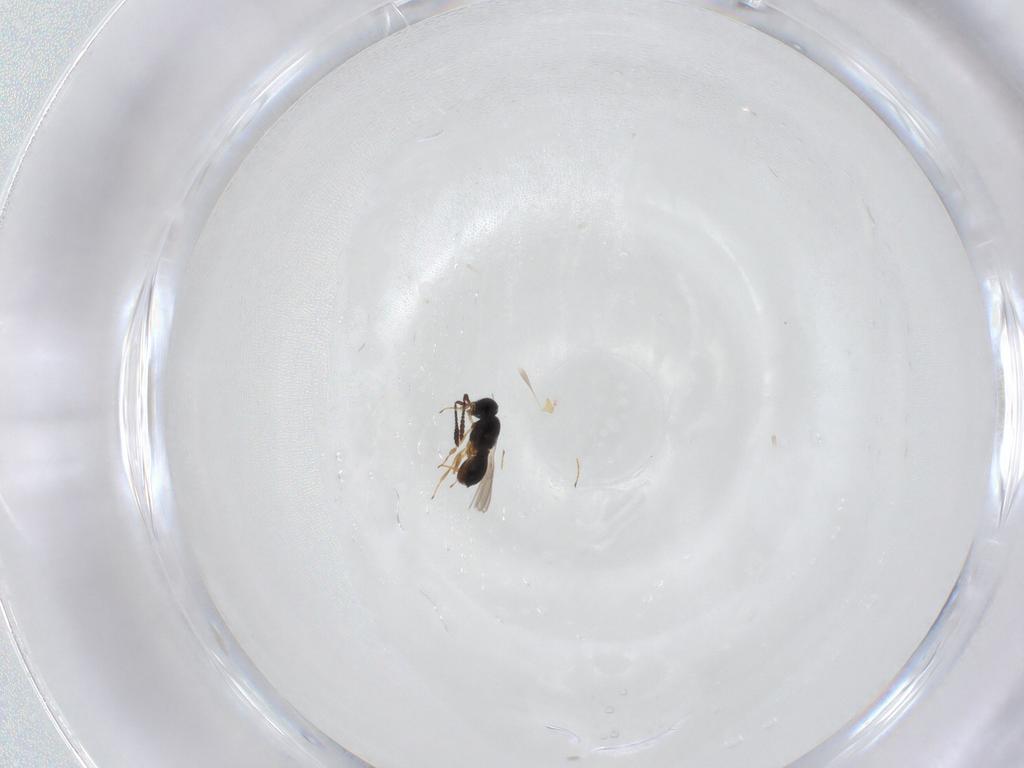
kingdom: Animalia
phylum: Arthropoda
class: Insecta
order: Hymenoptera
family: Scelionidae
